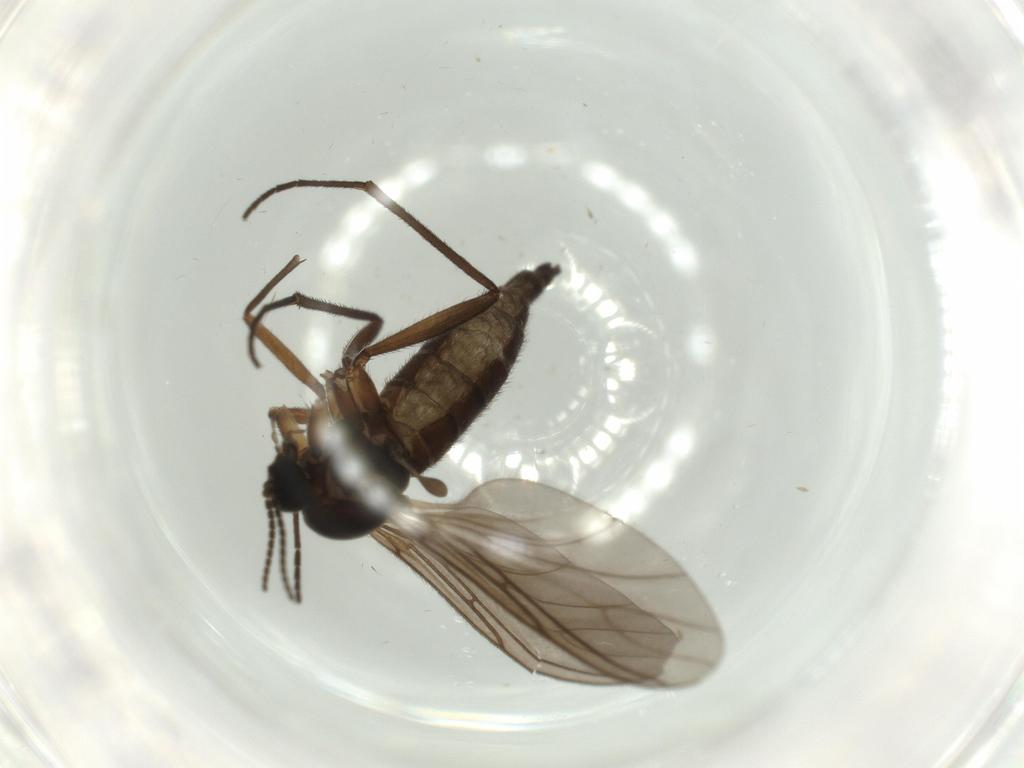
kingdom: Animalia
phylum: Arthropoda
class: Insecta
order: Diptera
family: Sciaridae
